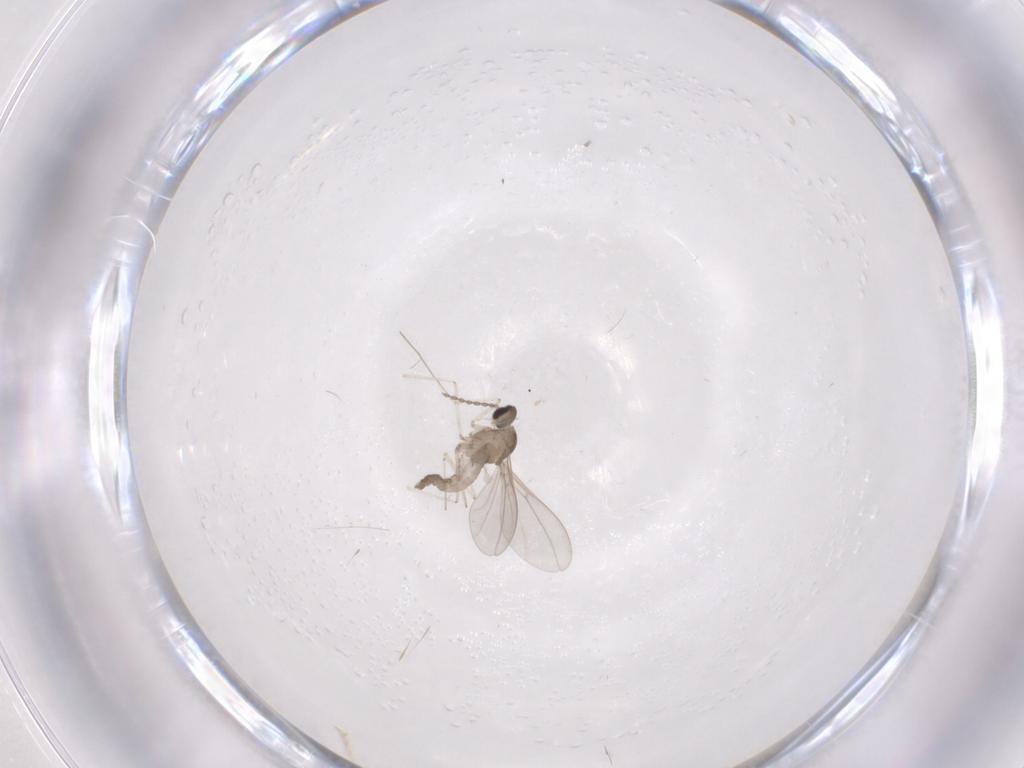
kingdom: Animalia
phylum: Arthropoda
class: Insecta
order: Diptera
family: Cecidomyiidae
